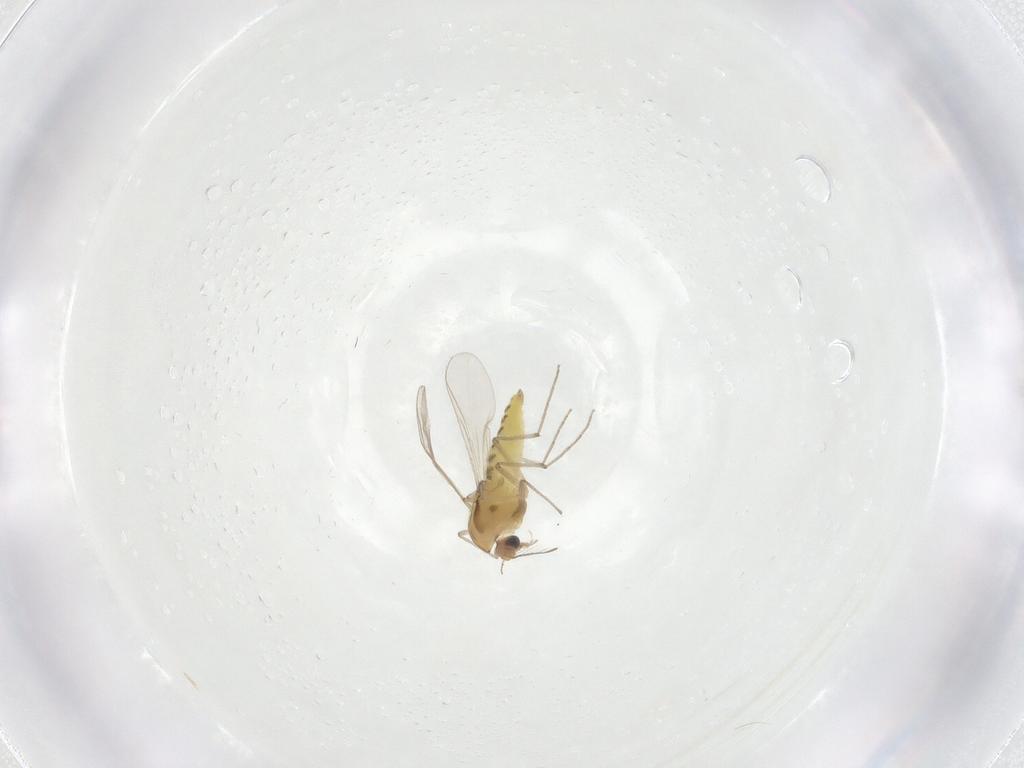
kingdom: Animalia
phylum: Arthropoda
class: Insecta
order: Diptera
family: Chironomidae
